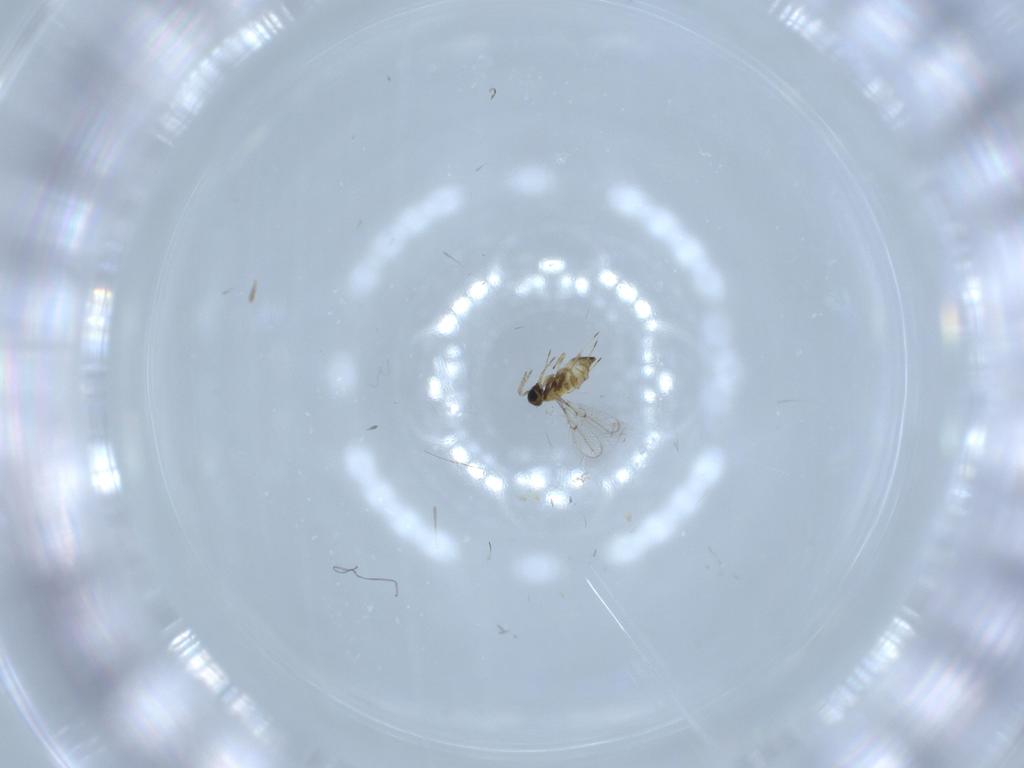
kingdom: Animalia
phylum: Arthropoda
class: Insecta
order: Hymenoptera
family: Trichogrammatidae
